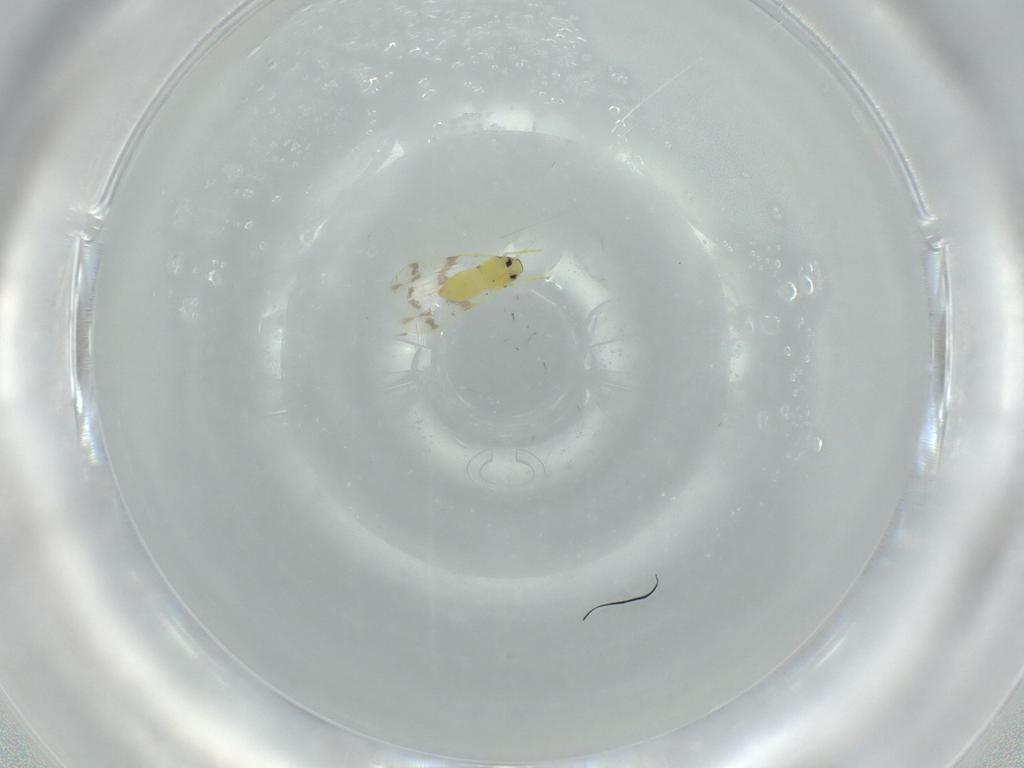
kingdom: Animalia
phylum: Arthropoda
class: Insecta
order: Hemiptera
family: Aleyrodidae
